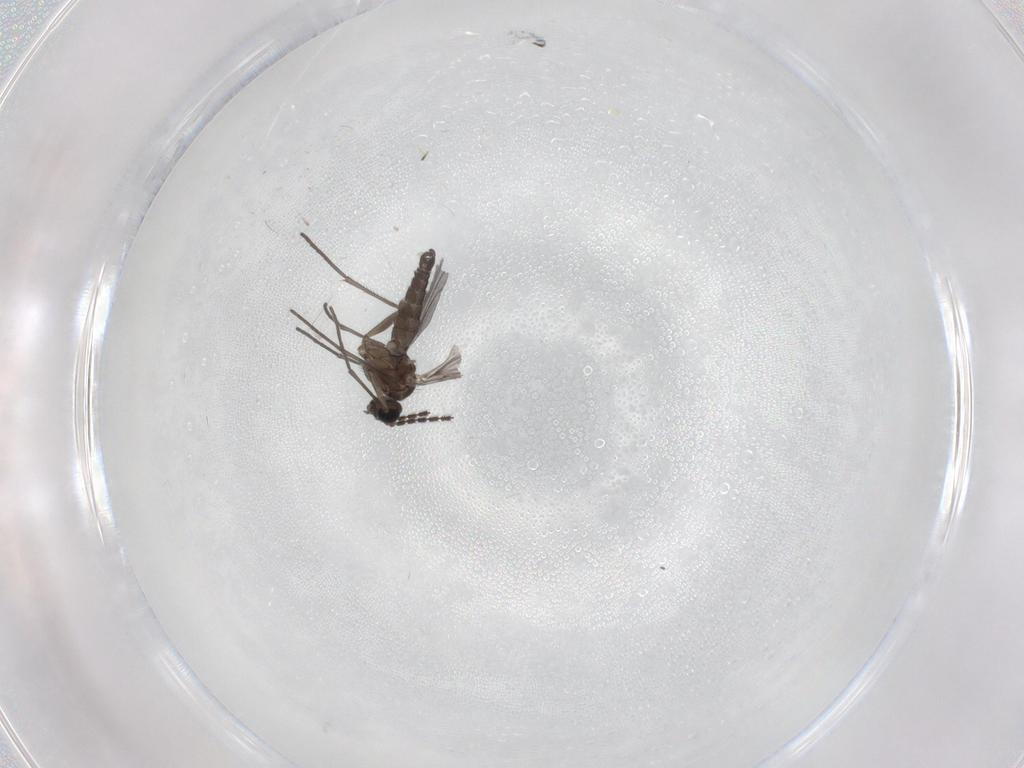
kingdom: Animalia
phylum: Arthropoda
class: Insecta
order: Diptera
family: Sciaridae
